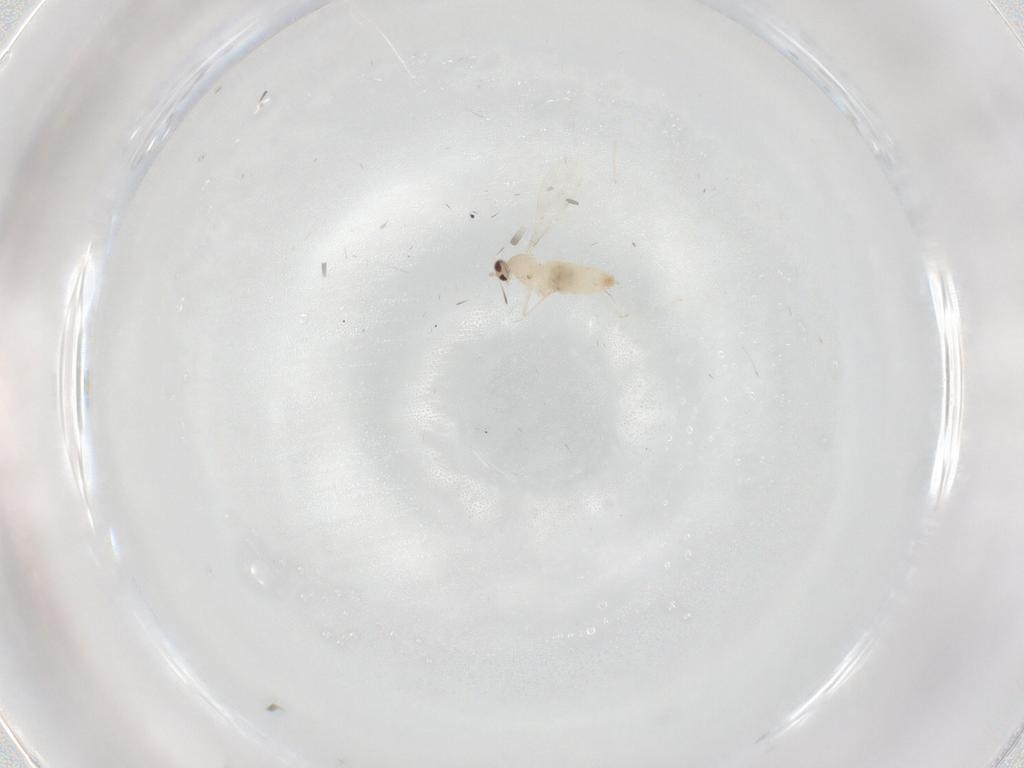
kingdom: Animalia
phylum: Arthropoda
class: Insecta
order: Diptera
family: Cecidomyiidae
